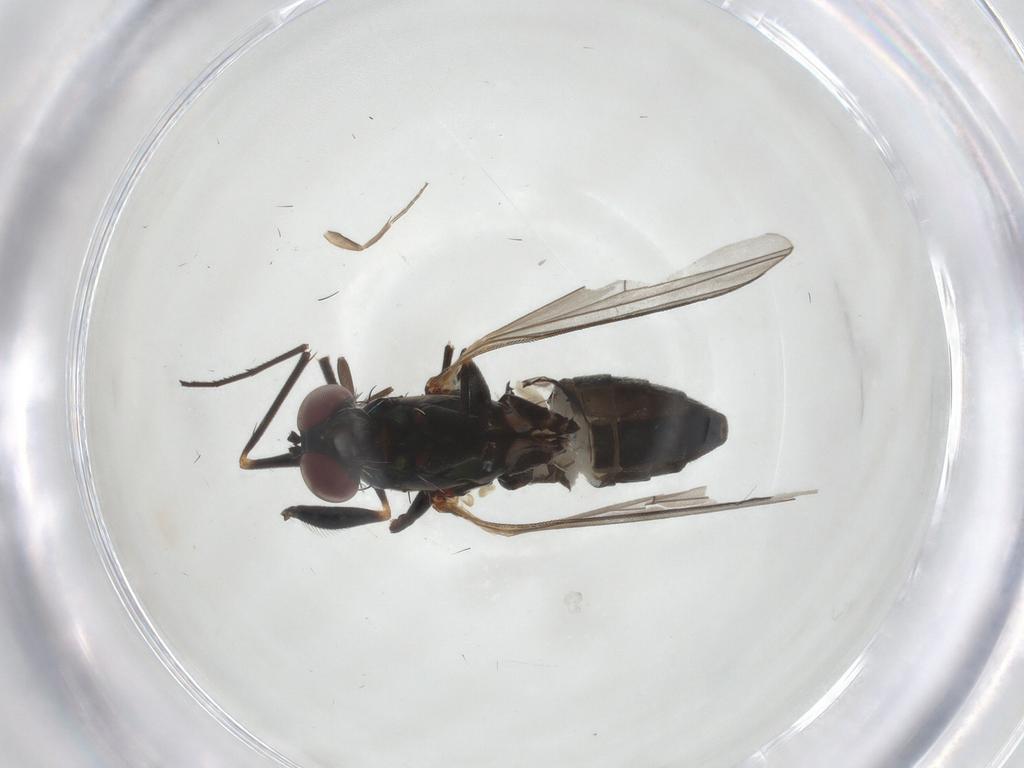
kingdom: Animalia
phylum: Arthropoda
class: Insecta
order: Diptera
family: Dolichopodidae
